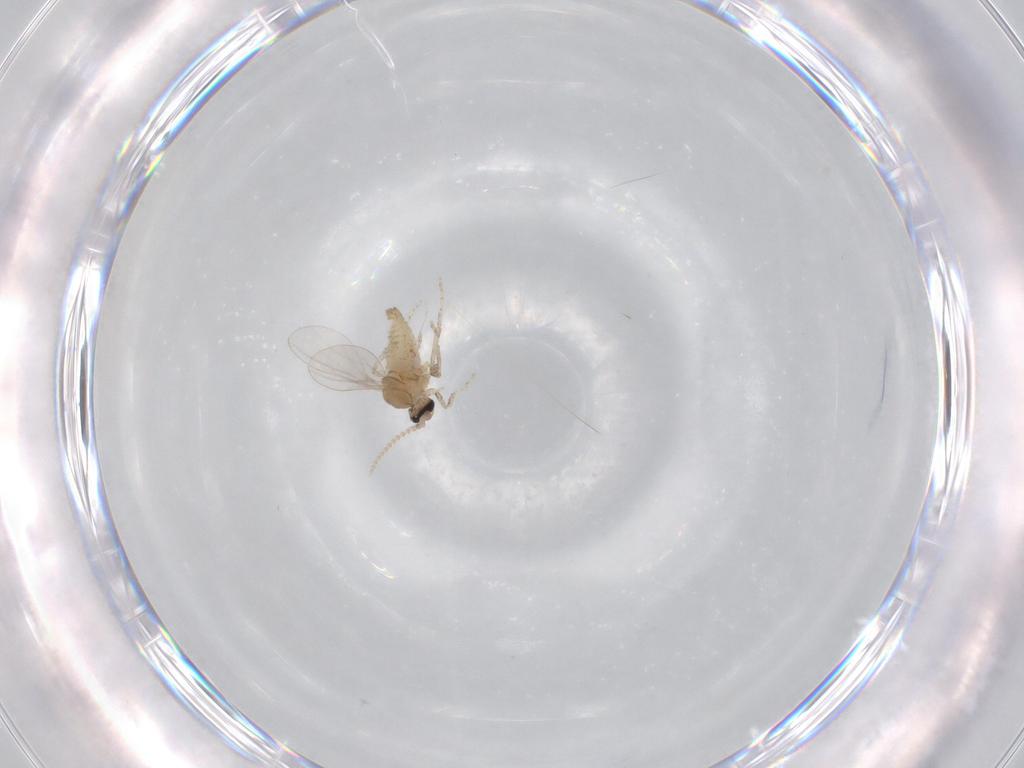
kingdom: Animalia
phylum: Arthropoda
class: Insecta
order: Diptera
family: Cecidomyiidae
